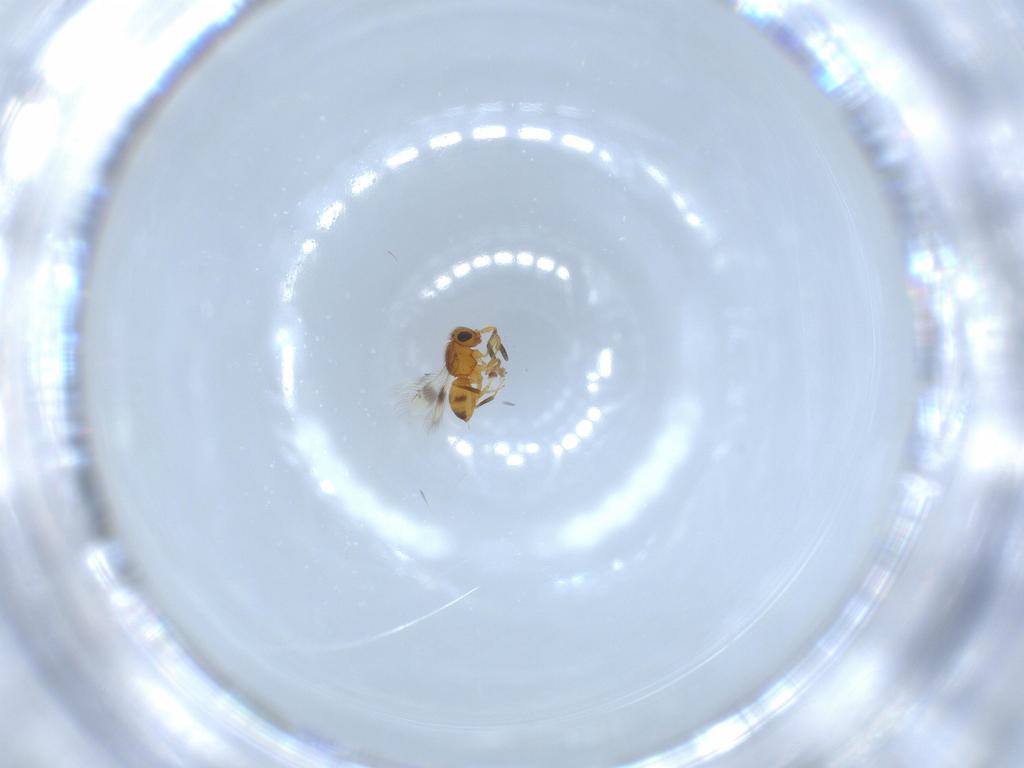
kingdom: Animalia
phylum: Arthropoda
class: Insecta
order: Hymenoptera
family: Scelionidae
